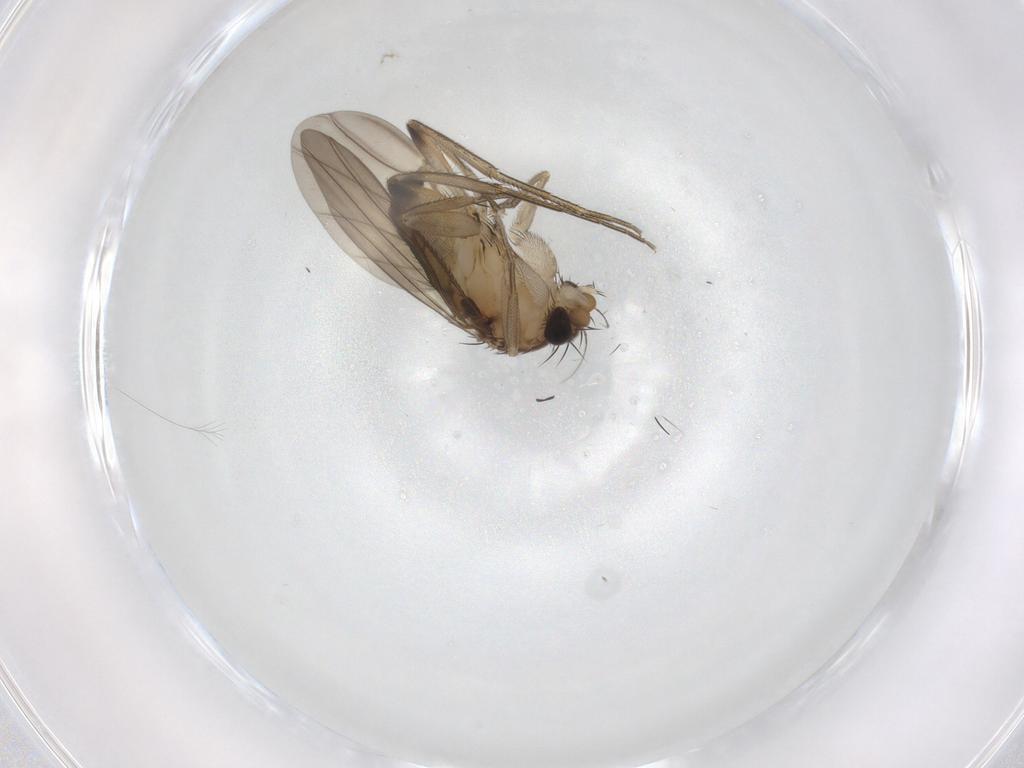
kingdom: Animalia
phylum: Arthropoda
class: Insecta
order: Diptera
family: Phoridae
